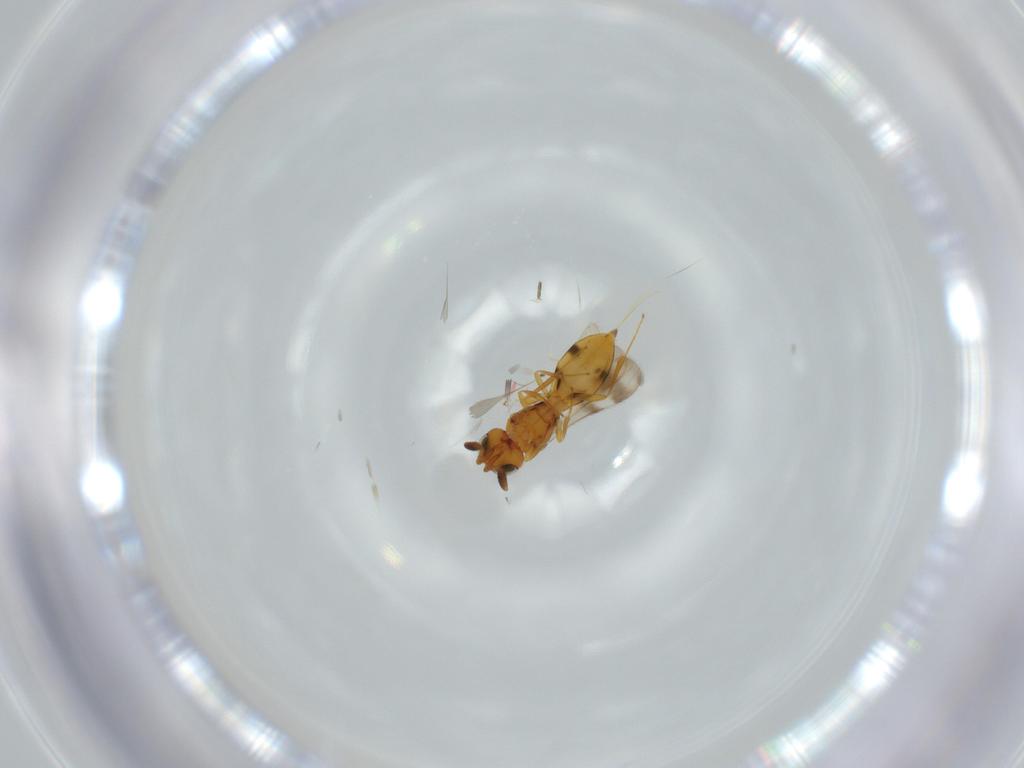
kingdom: Animalia
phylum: Arthropoda
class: Insecta
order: Hymenoptera
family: Scelionidae
